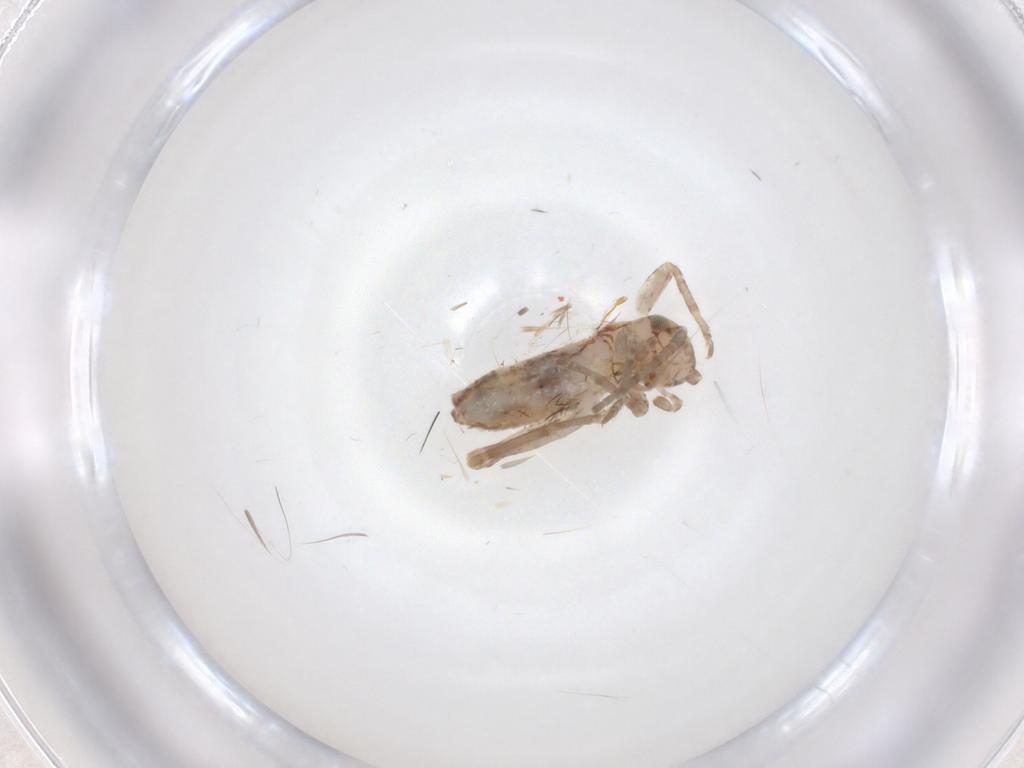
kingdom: Animalia
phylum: Arthropoda
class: Insecta
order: Orthoptera
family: Mogoplistidae
